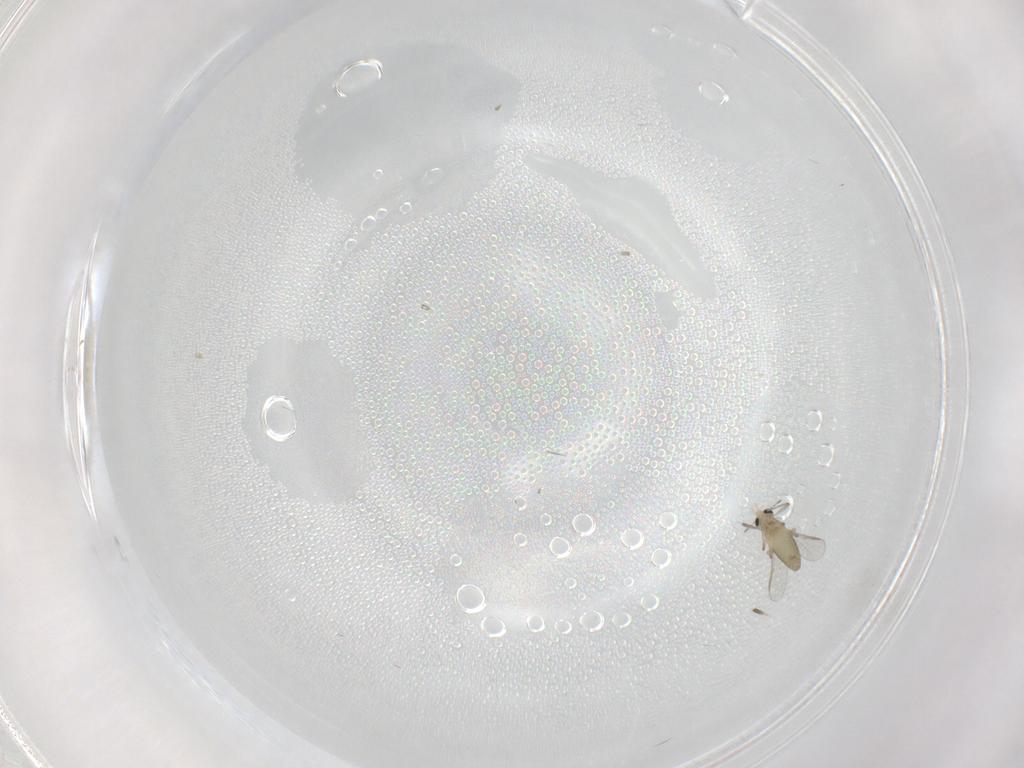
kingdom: Animalia
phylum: Arthropoda
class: Insecta
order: Diptera
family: Chironomidae
